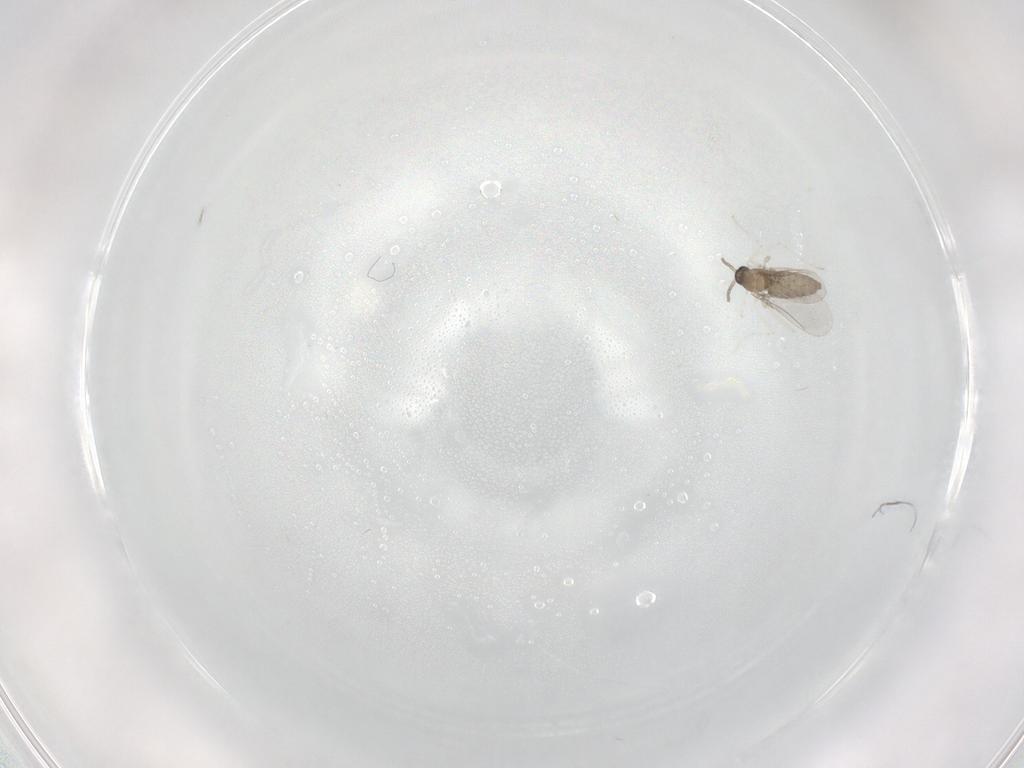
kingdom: Animalia
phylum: Arthropoda
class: Insecta
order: Diptera
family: Cecidomyiidae
